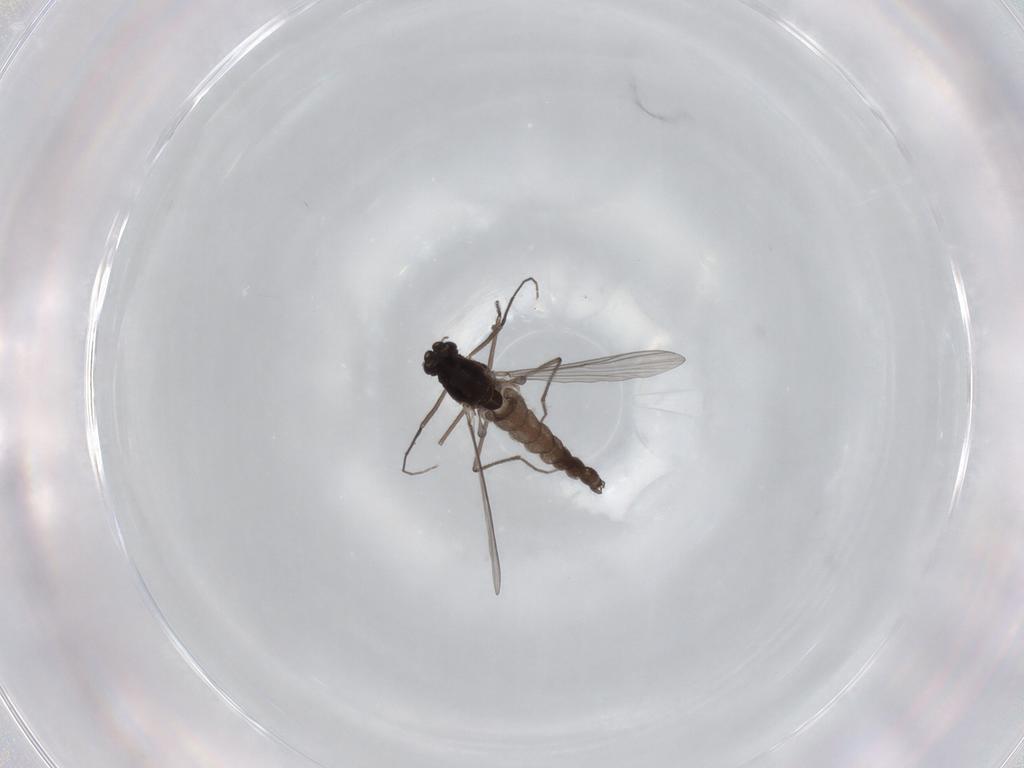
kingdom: Animalia
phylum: Arthropoda
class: Insecta
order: Diptera
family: Chironomidae
